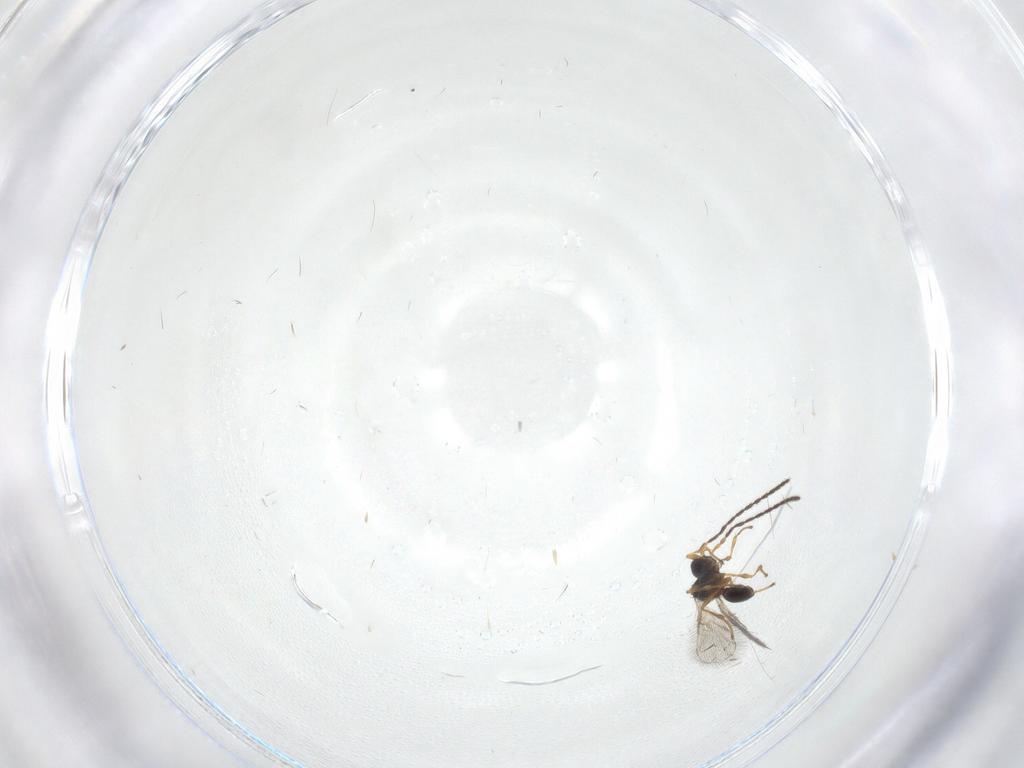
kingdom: Animalia
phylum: Arthropoda
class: Insecta
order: Hymenoptera
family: Diapriidae
